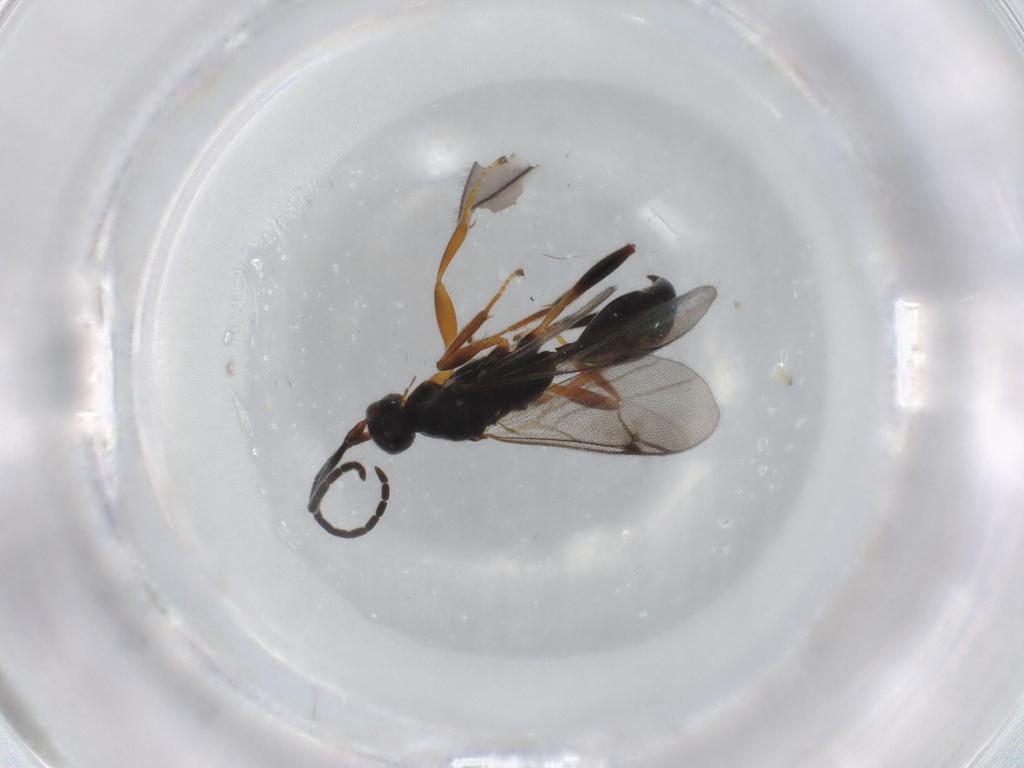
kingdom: Animalia
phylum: Arthropoda
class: Insecta
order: Hymenoptera
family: Proctotrupidae
